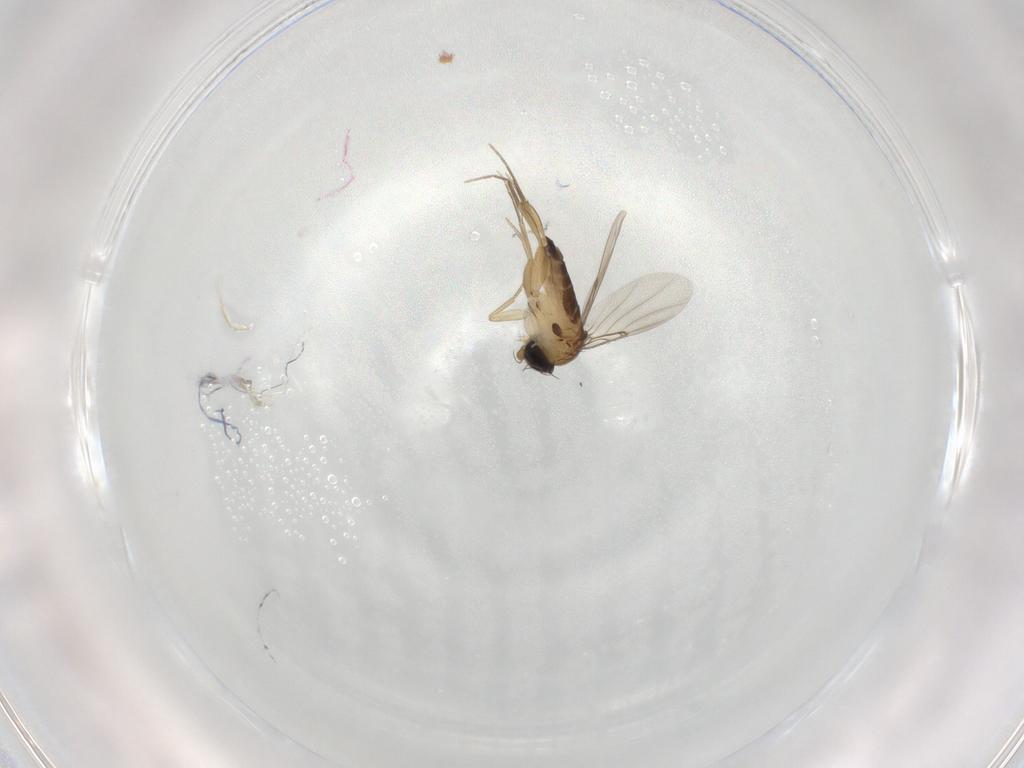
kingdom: Animalia
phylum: Arthropoda
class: Insecta
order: Diptera
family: Phoridae
